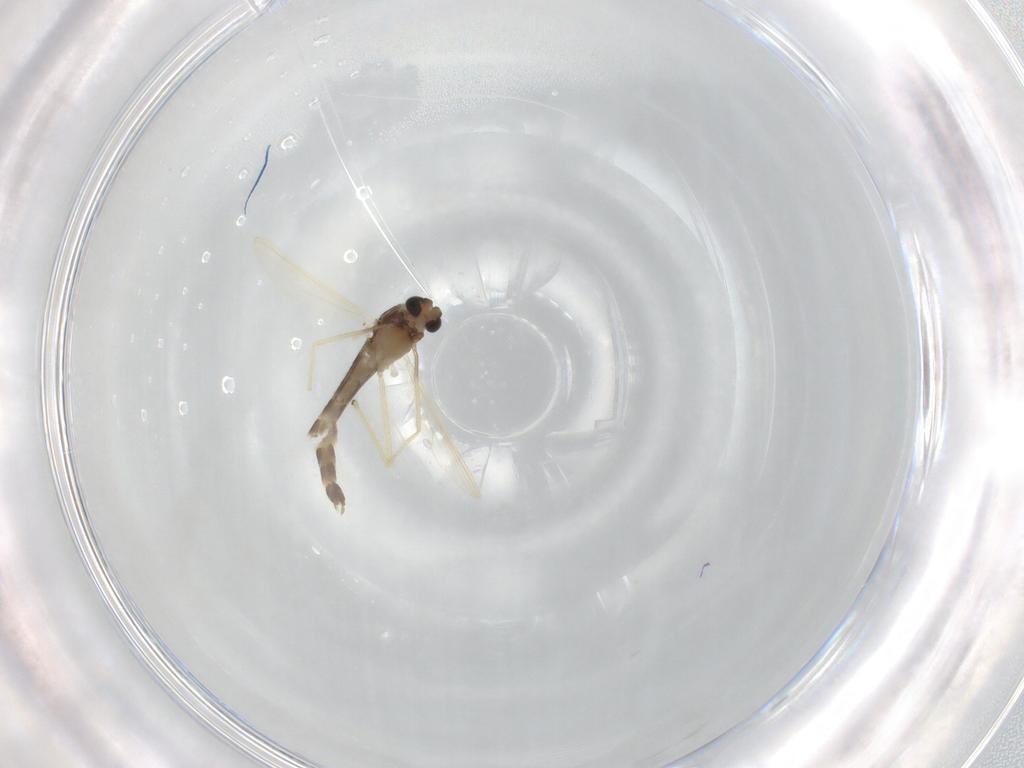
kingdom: Animalia
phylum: Arthropoda
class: Insecta
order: Diptera
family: Chironomidae
